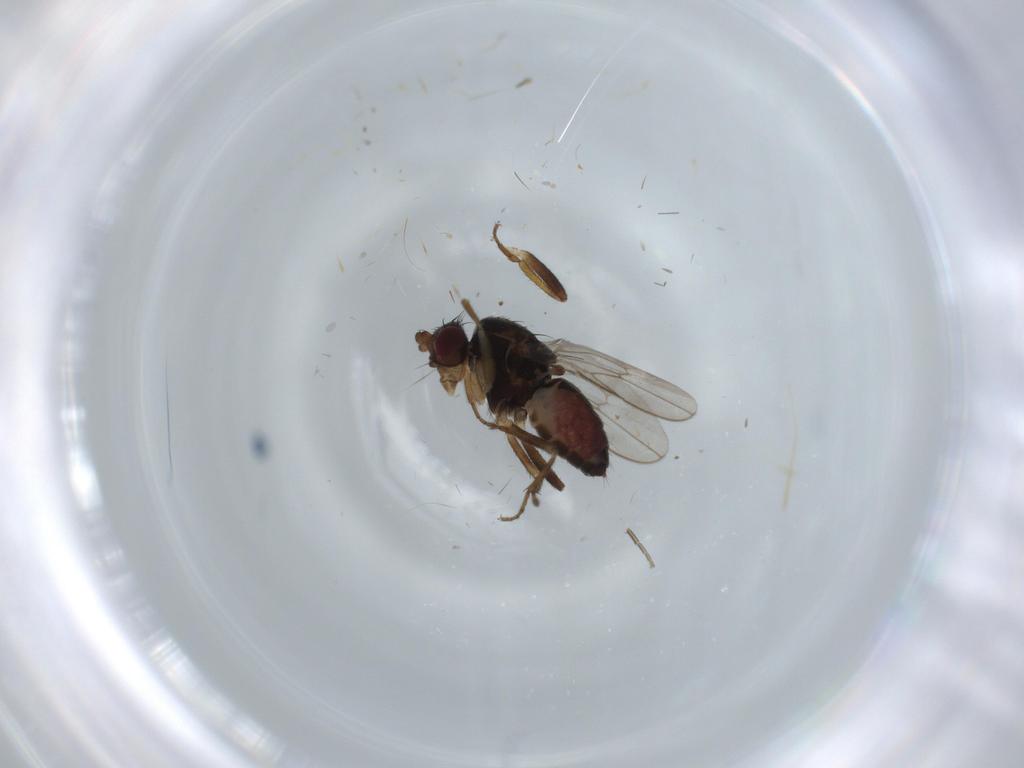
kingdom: Animalia
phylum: Arthropoda
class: Insecta
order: Diptera
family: Sphaeroceridae
